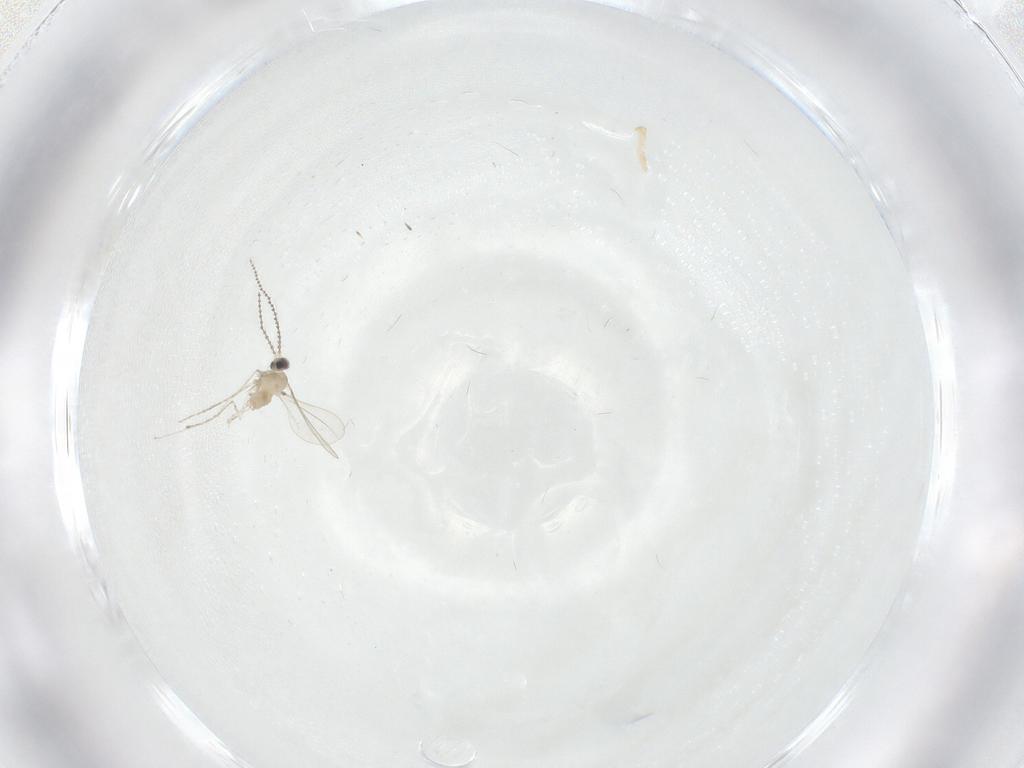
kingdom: Animalia
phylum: Arthropoda
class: Insecta
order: Diptera
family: Cecidomyiidae
